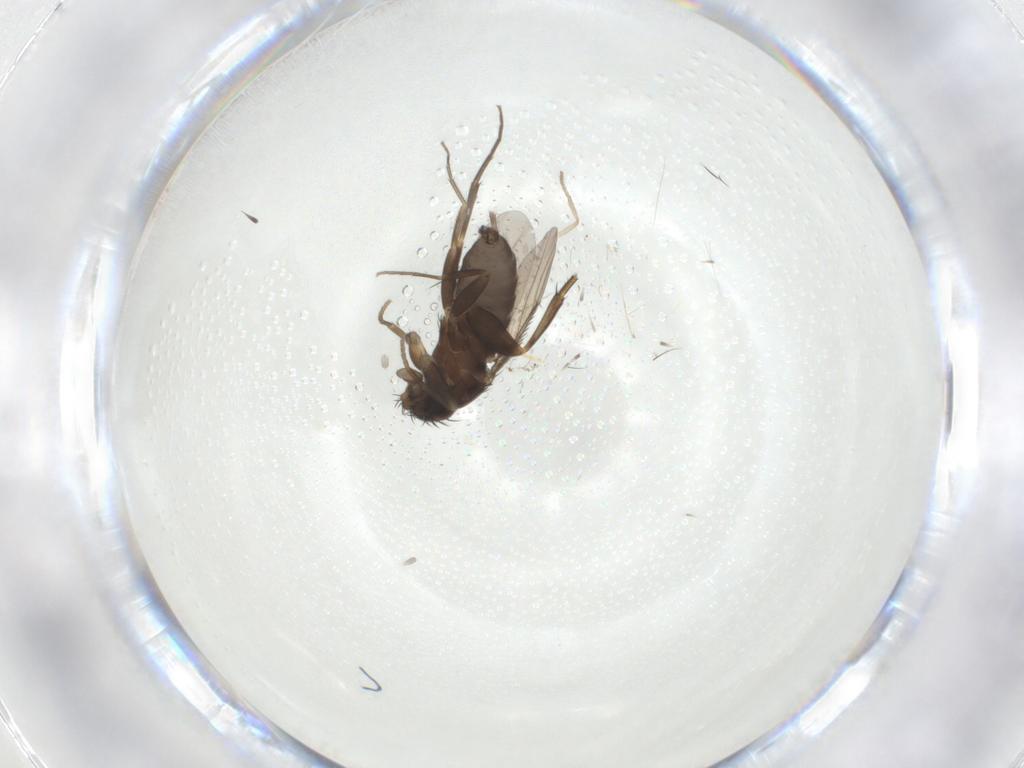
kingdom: Animalia
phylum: Arthropoda
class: Insecta
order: Diptera
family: Phoridae
